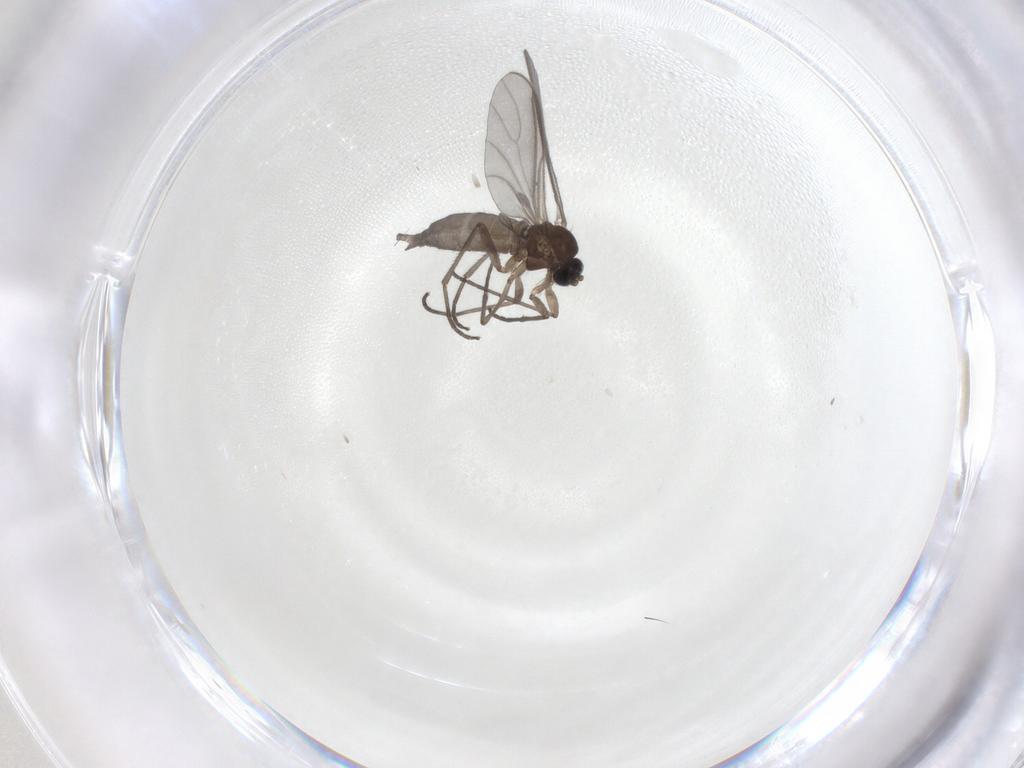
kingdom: Animalia
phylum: Arthropoda
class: Insecta
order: Diptera
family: Sciaridae
